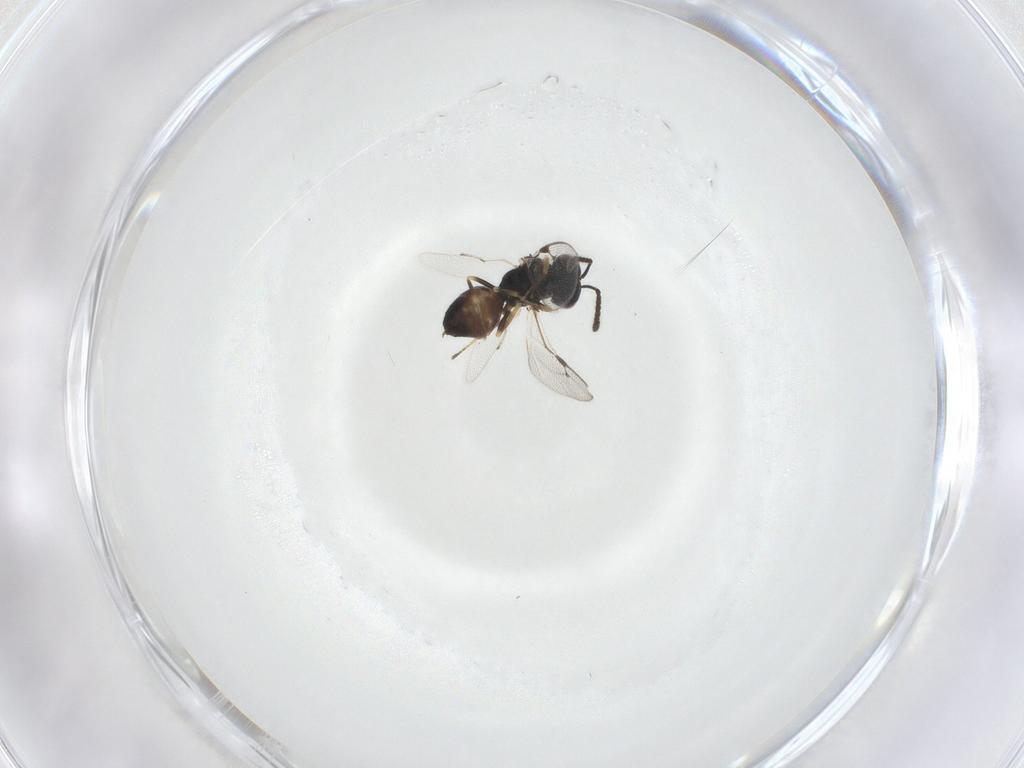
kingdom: Animalia
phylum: Arthropoda
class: Insecta
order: Hymenoptera
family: Pteromalidae
